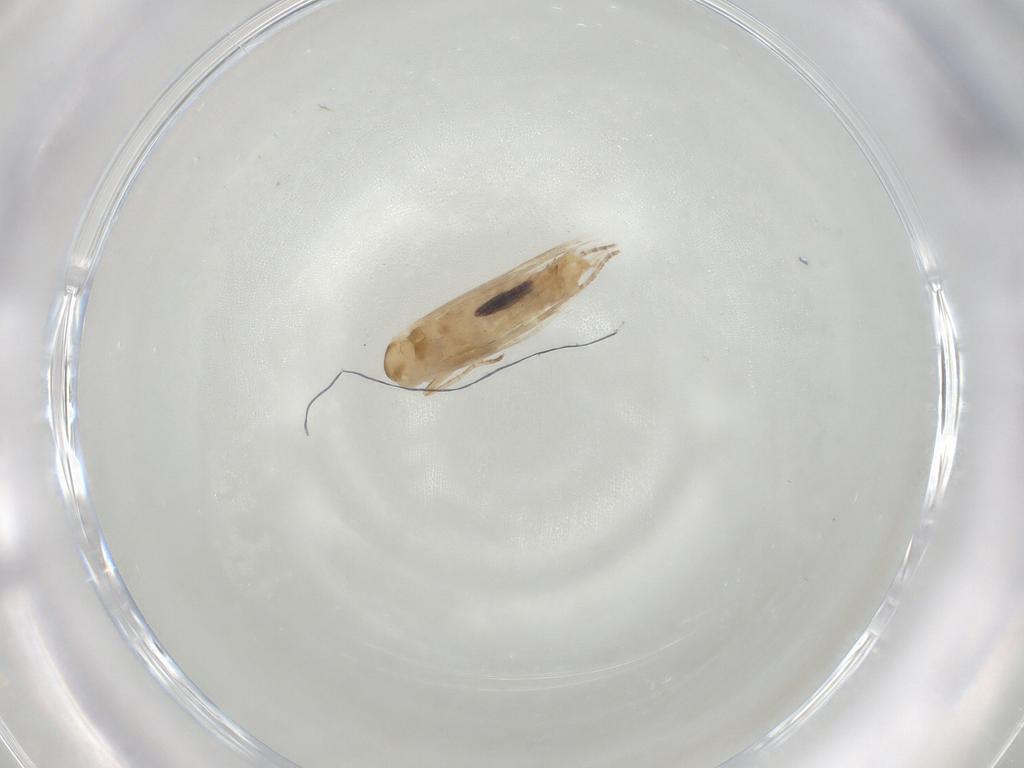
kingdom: Animalia
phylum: Arthropoda
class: Insecta
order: Lepidoptera
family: Bucculatricidae
